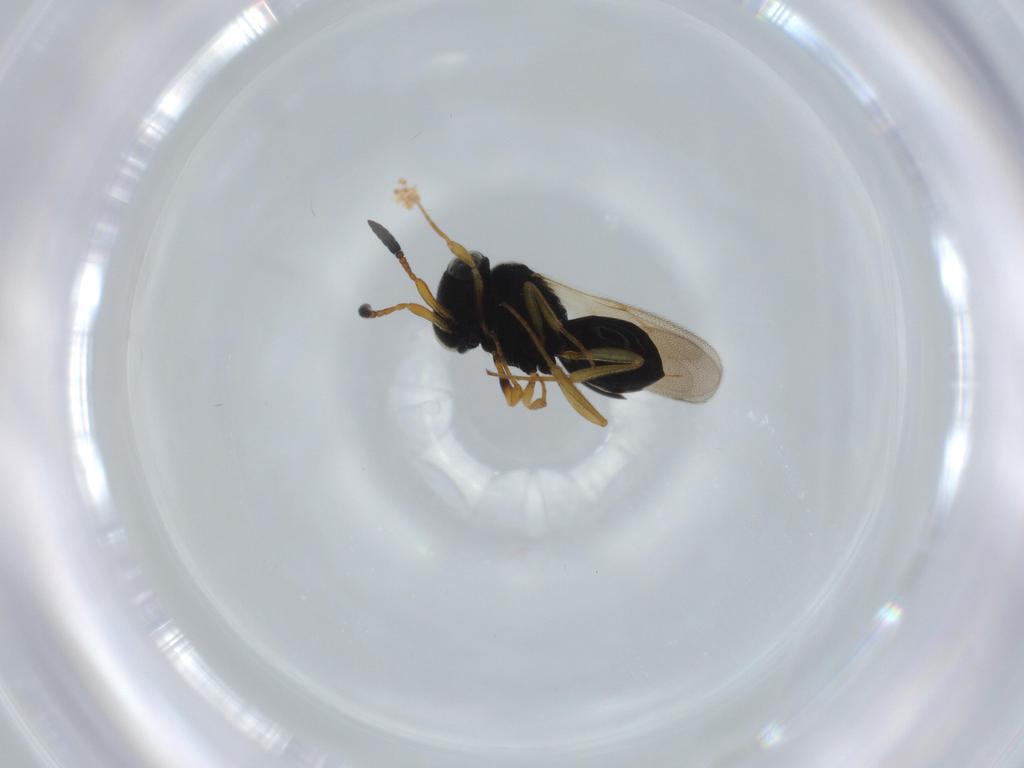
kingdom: Animalia
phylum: Arthropoda
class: Insecta
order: Hymenoptera
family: Scelionidae
